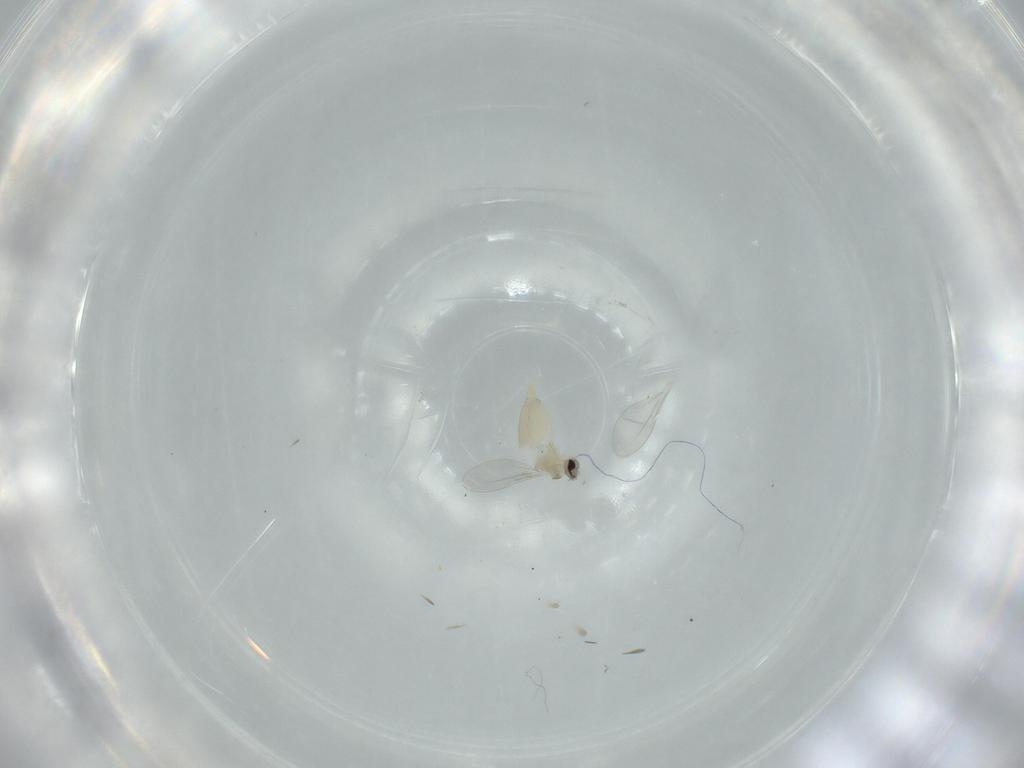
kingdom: Animalia
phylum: Arthropoda
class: Insecta
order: Diptera
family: Cecidomyiidae
